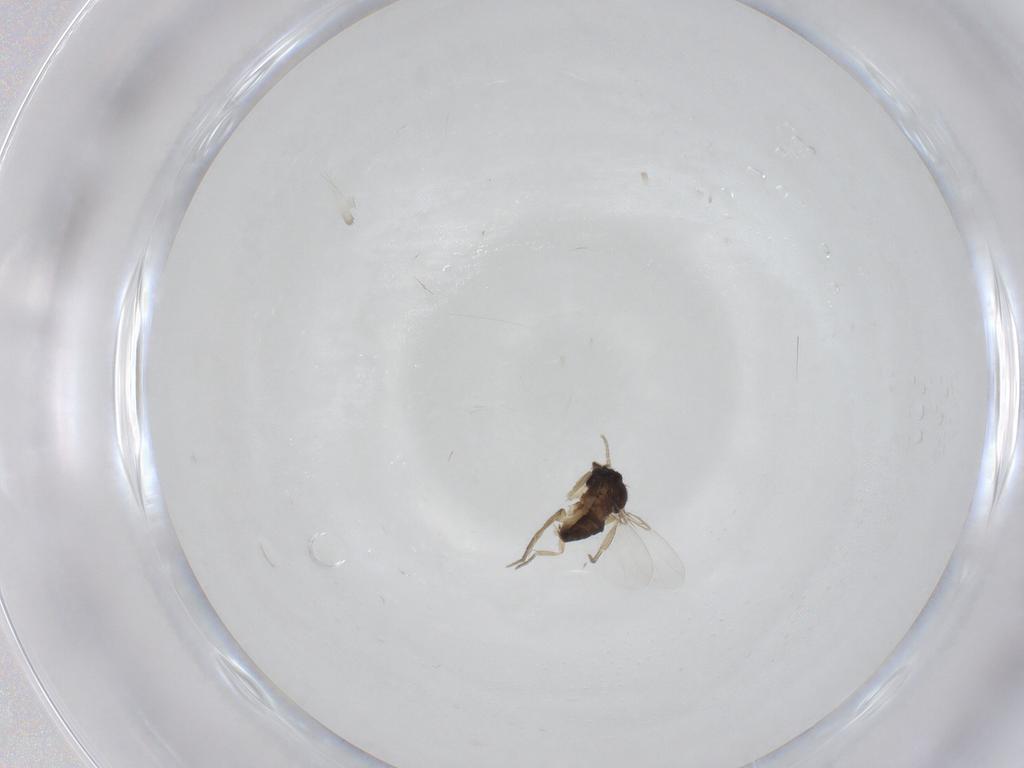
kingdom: Animalia
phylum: Arthropoda
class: Insecta
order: Diptera
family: Phoridae
